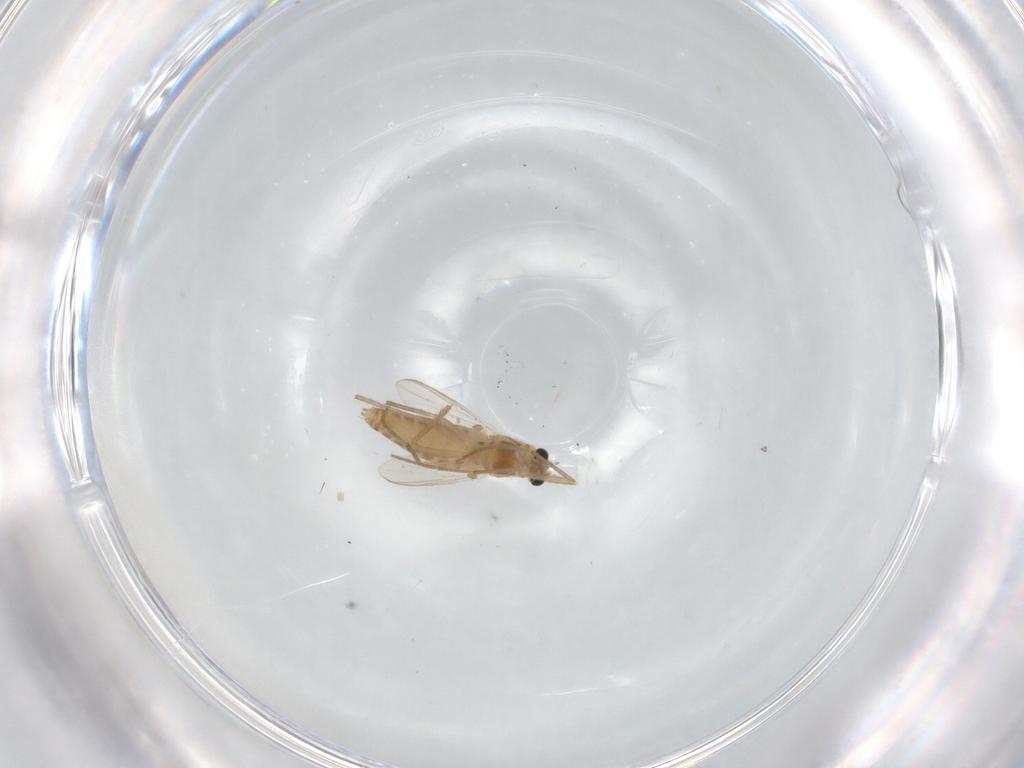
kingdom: Animalia
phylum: Arthropoda
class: Insecta
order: Diptera
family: Chironomidae
